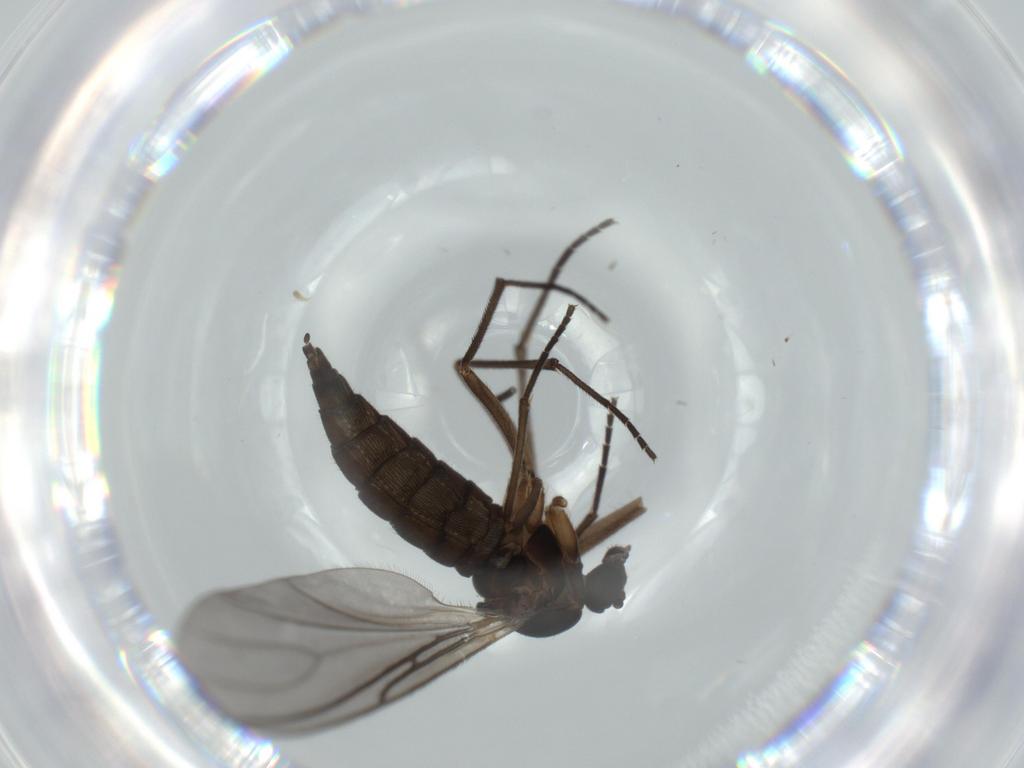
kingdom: Animalia
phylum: Arthropoda
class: Insecta
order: Diptera
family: Sciaridae
